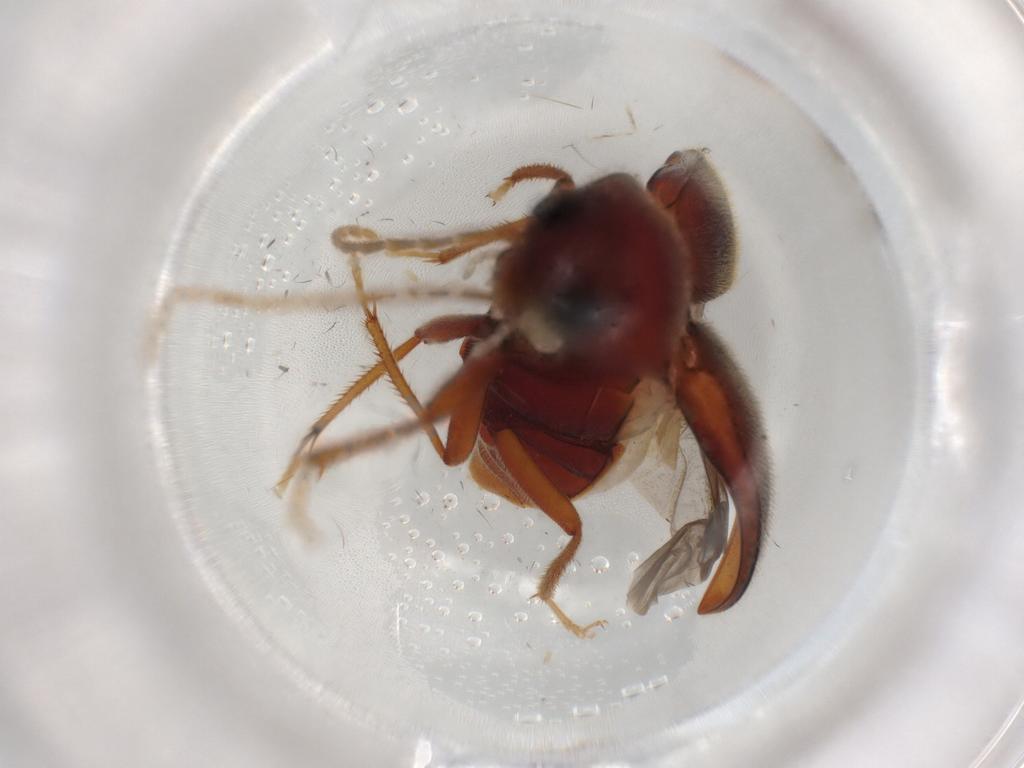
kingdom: Animalia
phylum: Arthropoda
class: Insecta
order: Coleoptera
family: Ptilodactylidae
